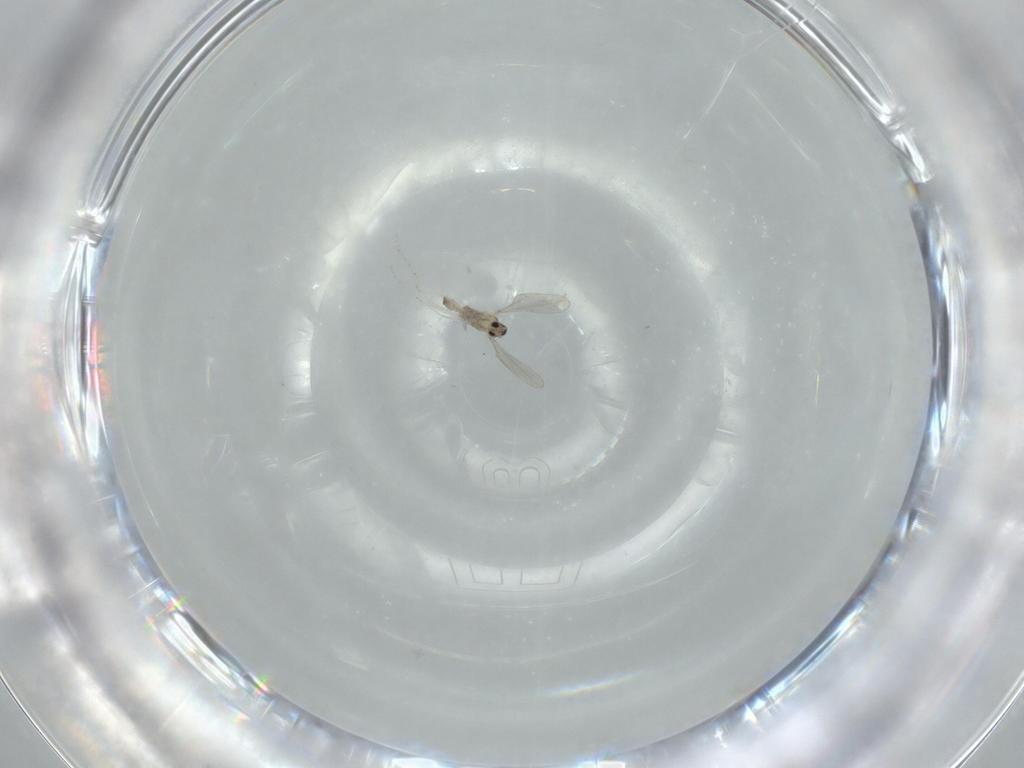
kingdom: Animalia
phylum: Arthropoda
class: Insecta
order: Diptera
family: Cecidomyiidae
